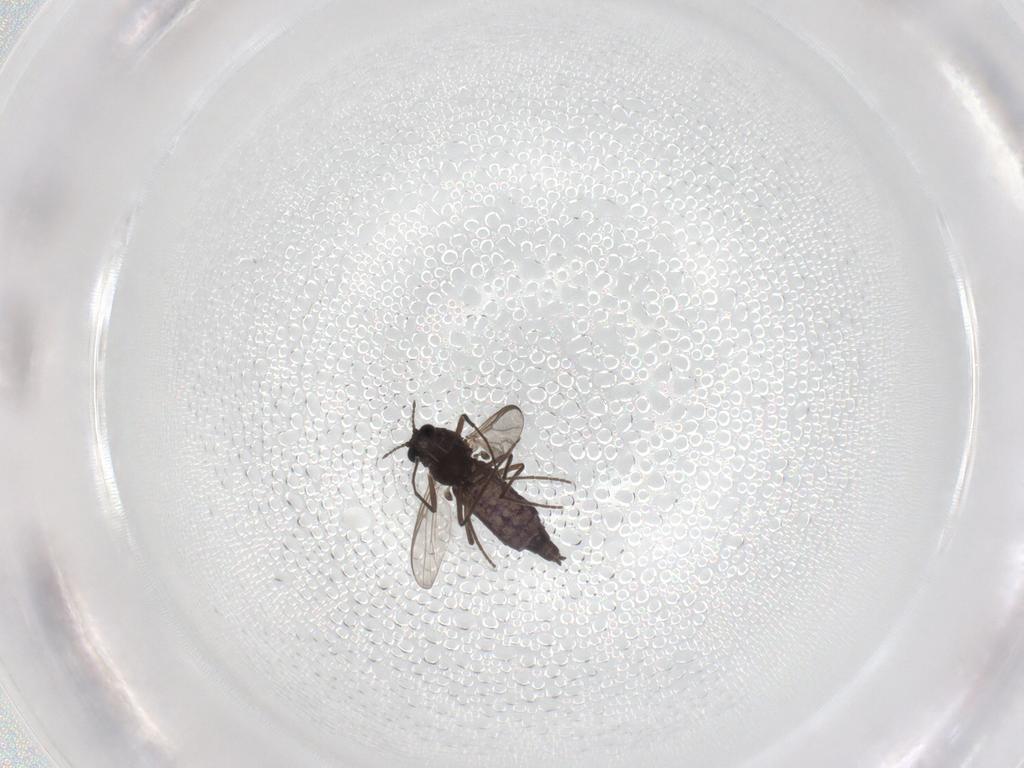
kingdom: Animalia
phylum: Arthropoda
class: Insecta
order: Diptera
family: Chironomidae
